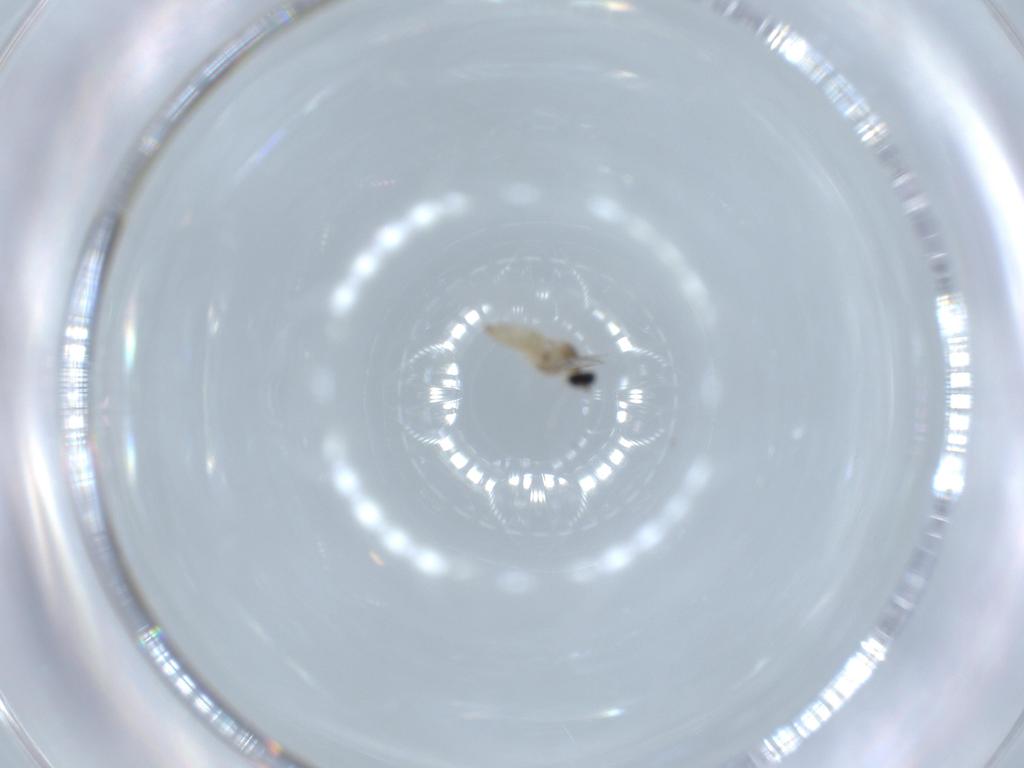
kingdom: Animalia
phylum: Arthropoda
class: Insecta
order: Diptera
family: Cecidomyiidae
